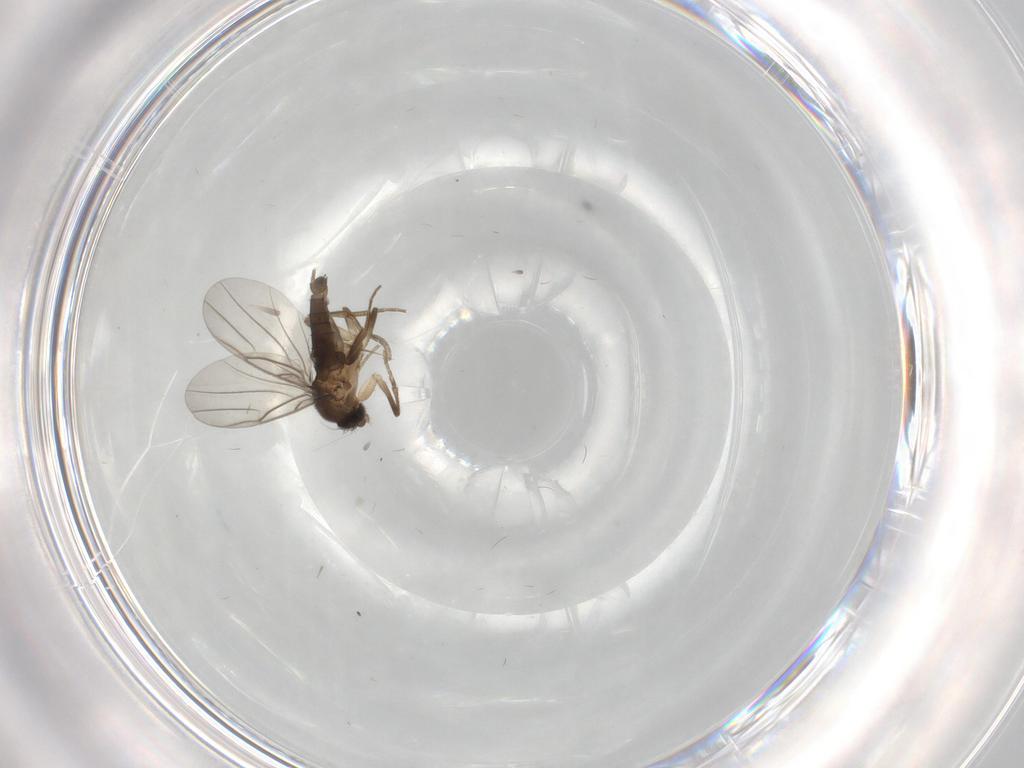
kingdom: Animalia
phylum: Arthropoda
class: Insecta
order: Diptera
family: Phoridae
